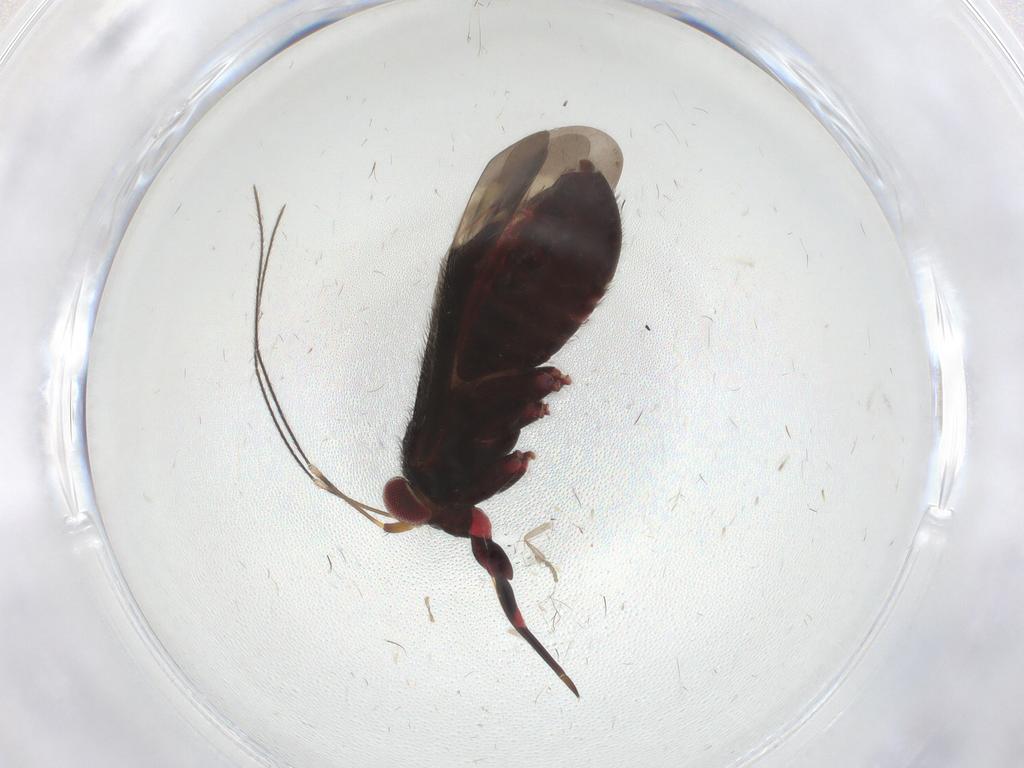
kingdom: Animalia
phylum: Arthropoda
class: Insecta
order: Hemiptera
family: Miridae
